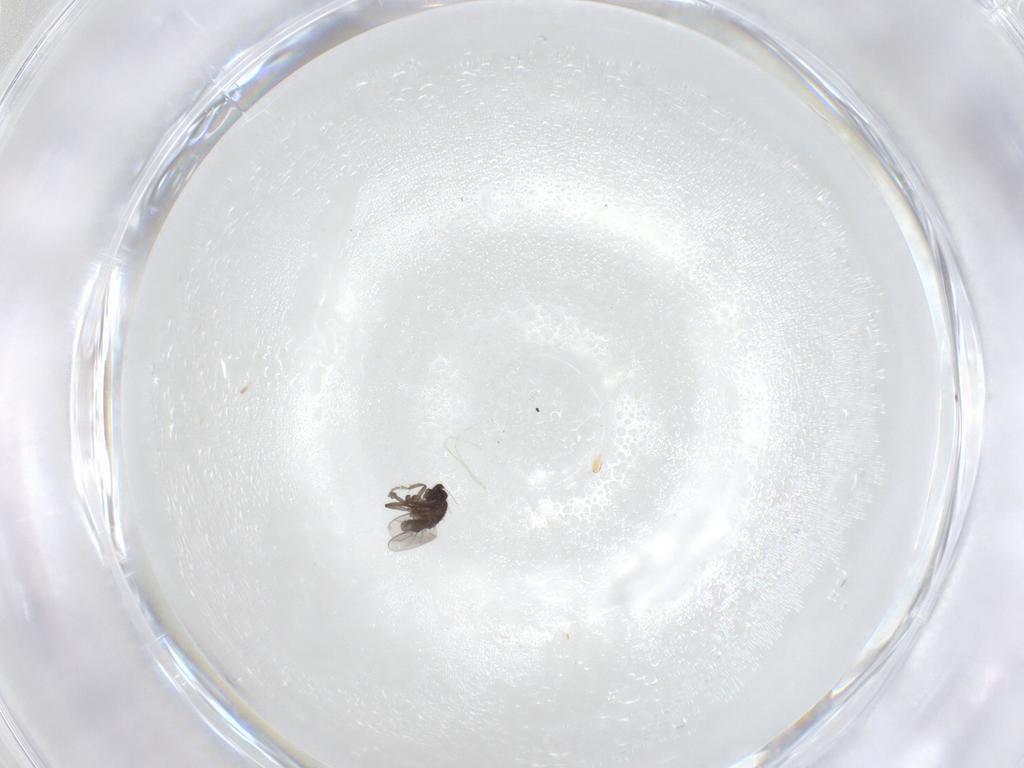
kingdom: Animalia
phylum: Arthropoda
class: Insecta
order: Diptera
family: Sphaeroceridae
